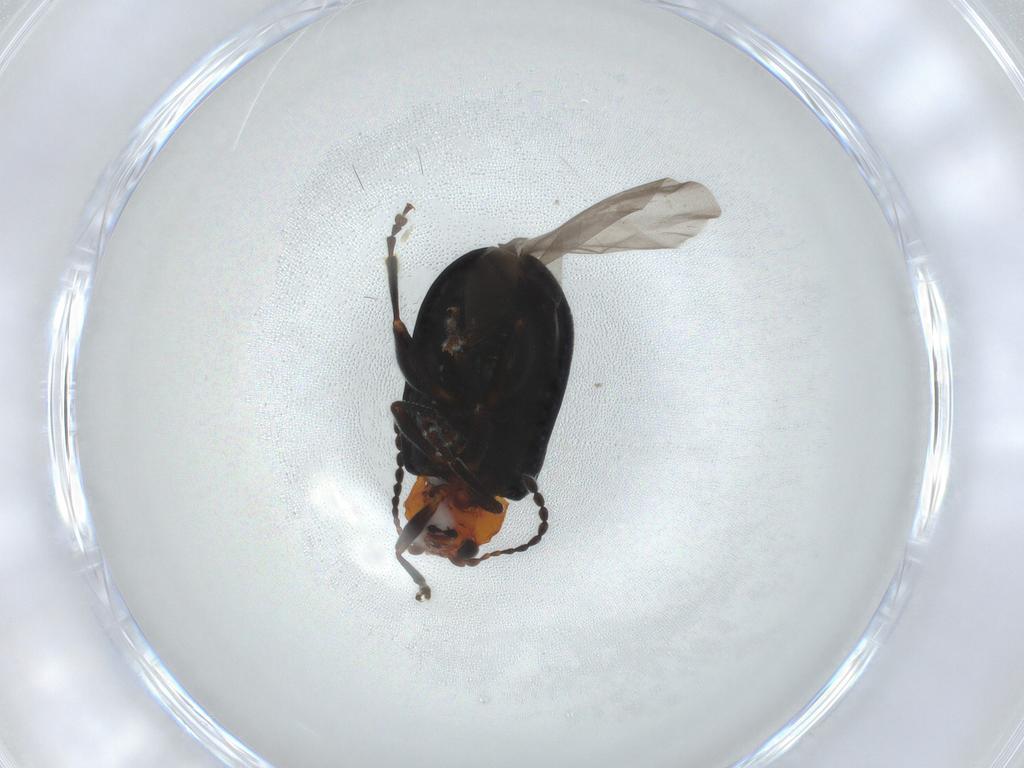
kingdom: Animalia
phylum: Arthropoda
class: Insecta
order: Coleoptera
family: Chrysomelidae
